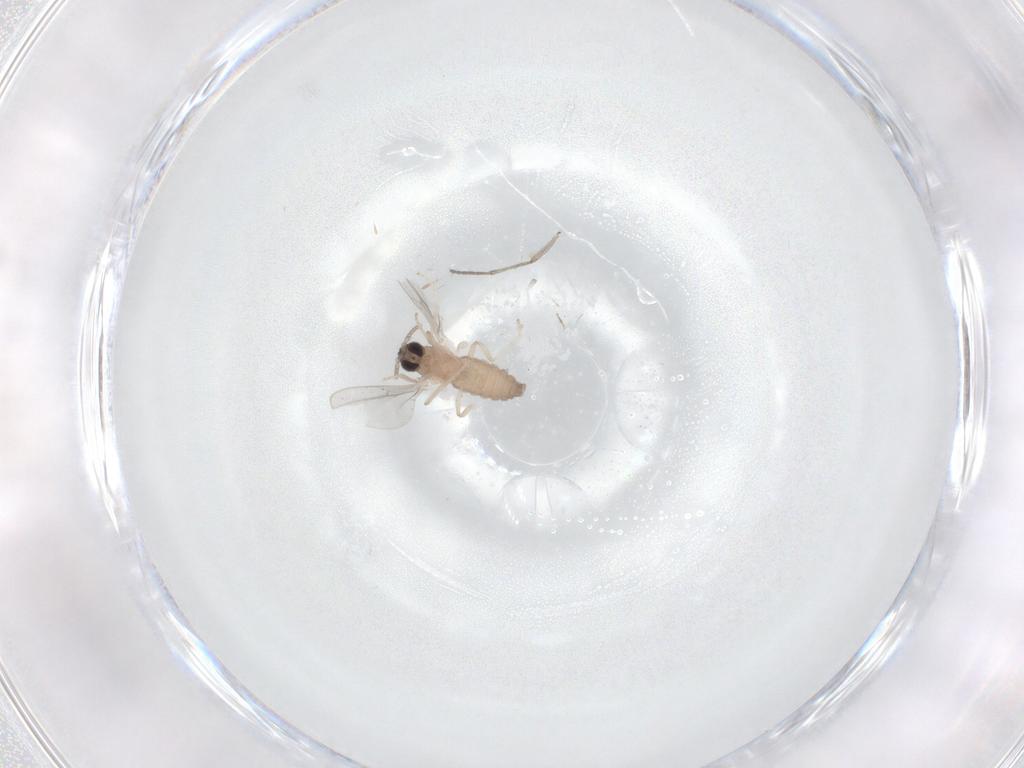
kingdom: Animalia
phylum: Arthropoda
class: Insecta
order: Diptera
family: Cecidomyiidae
